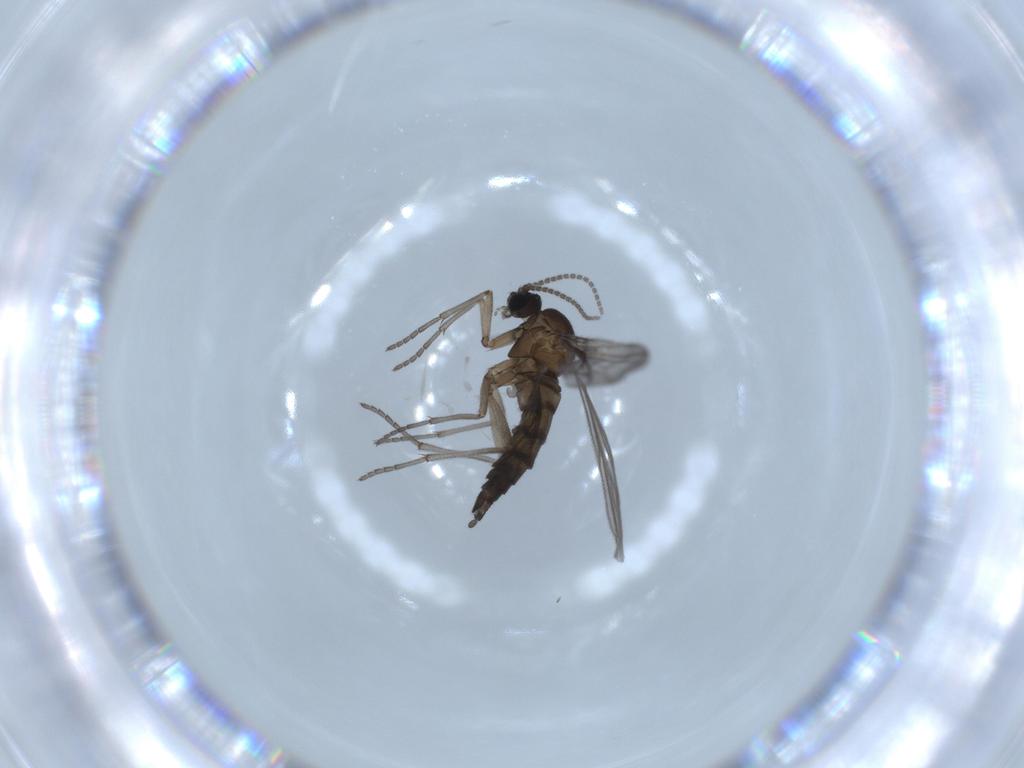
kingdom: Animalia
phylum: Arthropoda
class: Insecta
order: Diptera
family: Sciaridae
